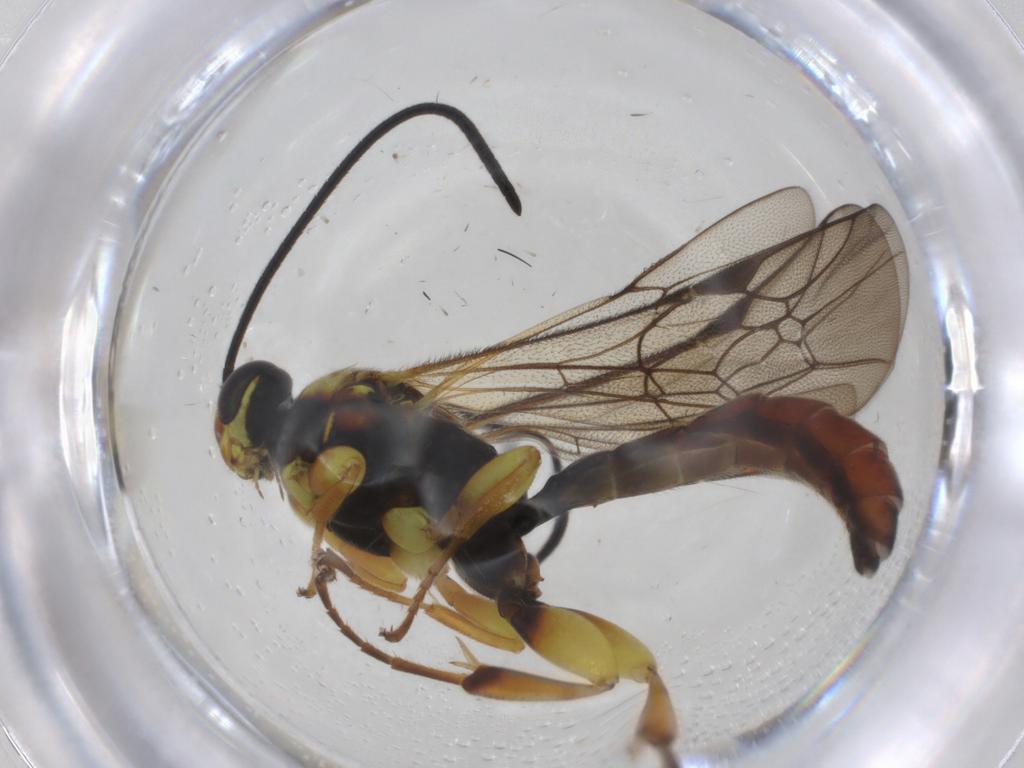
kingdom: Animalia
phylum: Arthropoda
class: Insecta
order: Hymenoptera
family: Ichneumonidae
